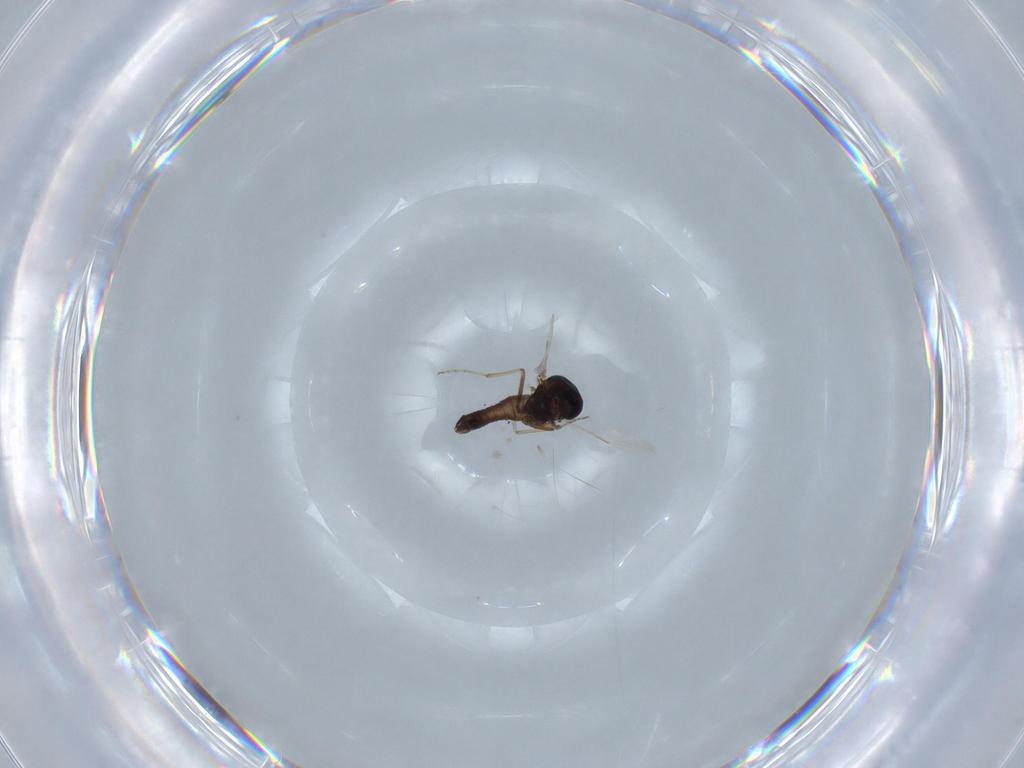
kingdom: Animalia
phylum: Arthropoda
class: Insecta
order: Diptera
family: Ceratopogonidae
